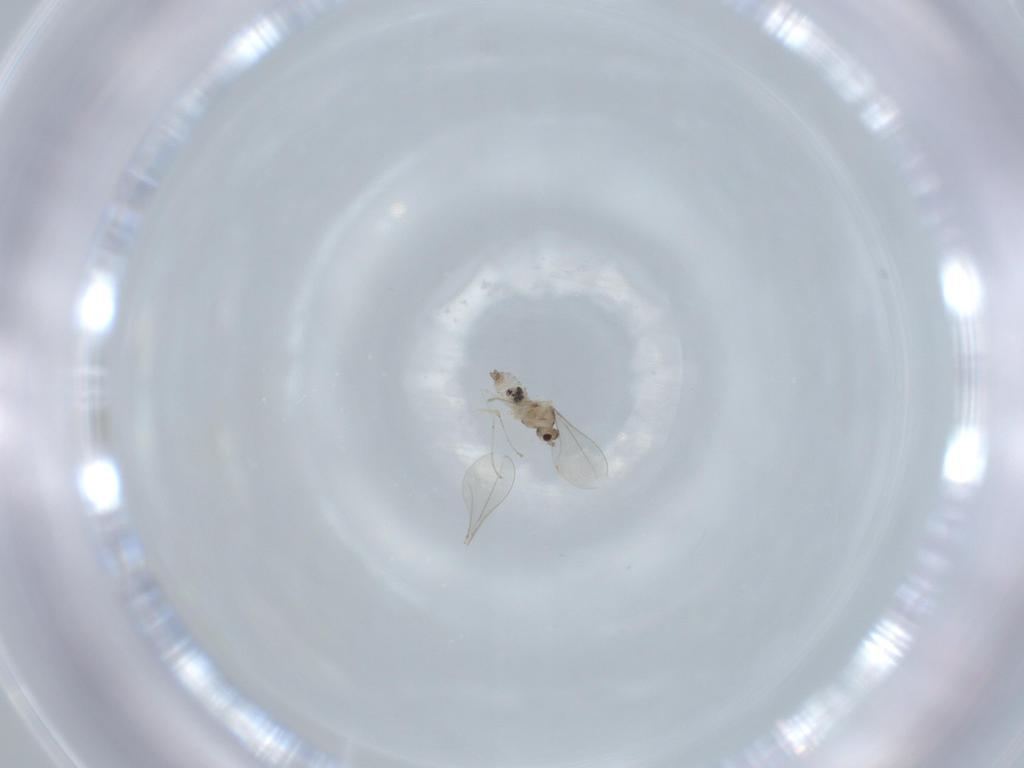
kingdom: Animalia
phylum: Arthropoda
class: Insecta
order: Diptera
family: Cecidomyiidae
